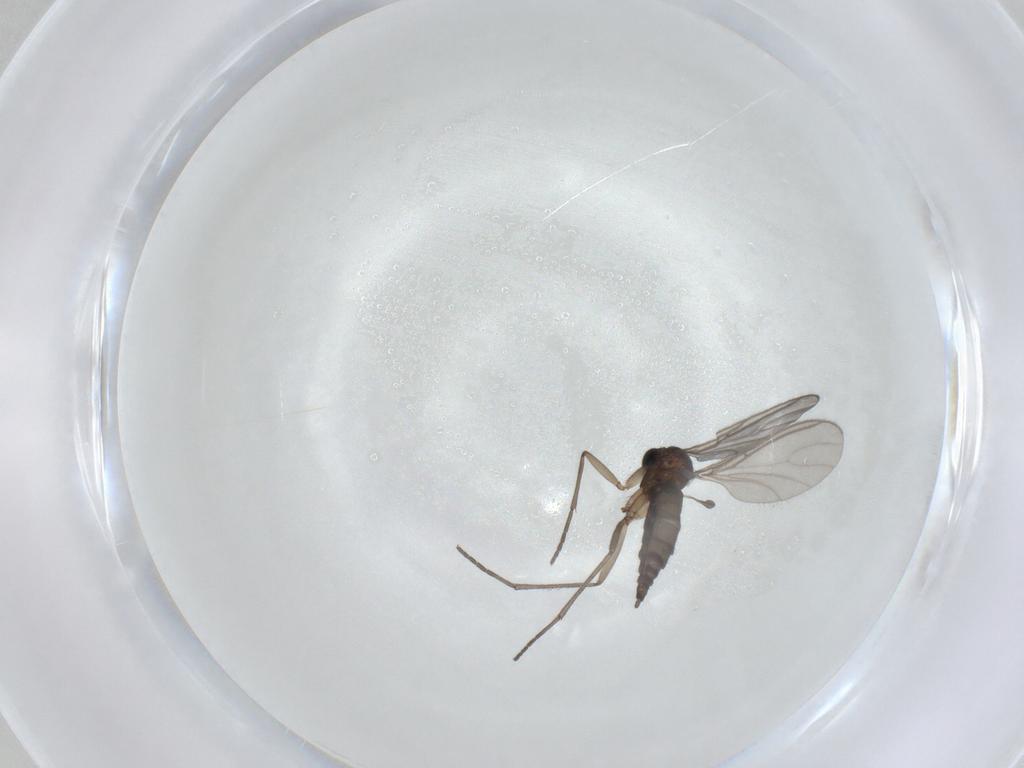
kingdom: Animalia
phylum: Arthropoda
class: Insecta
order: Diptera
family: Sciaridae
